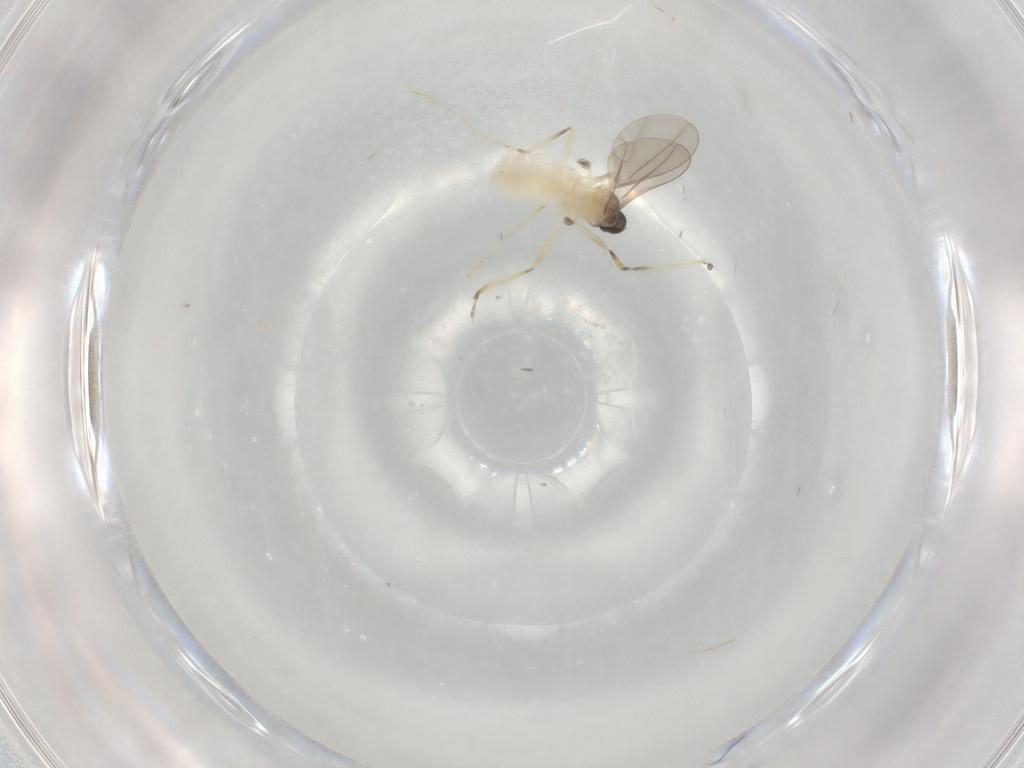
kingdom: Animalia
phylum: Arthropoda
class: Insecta
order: Diptera
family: Cecidomyiidae
